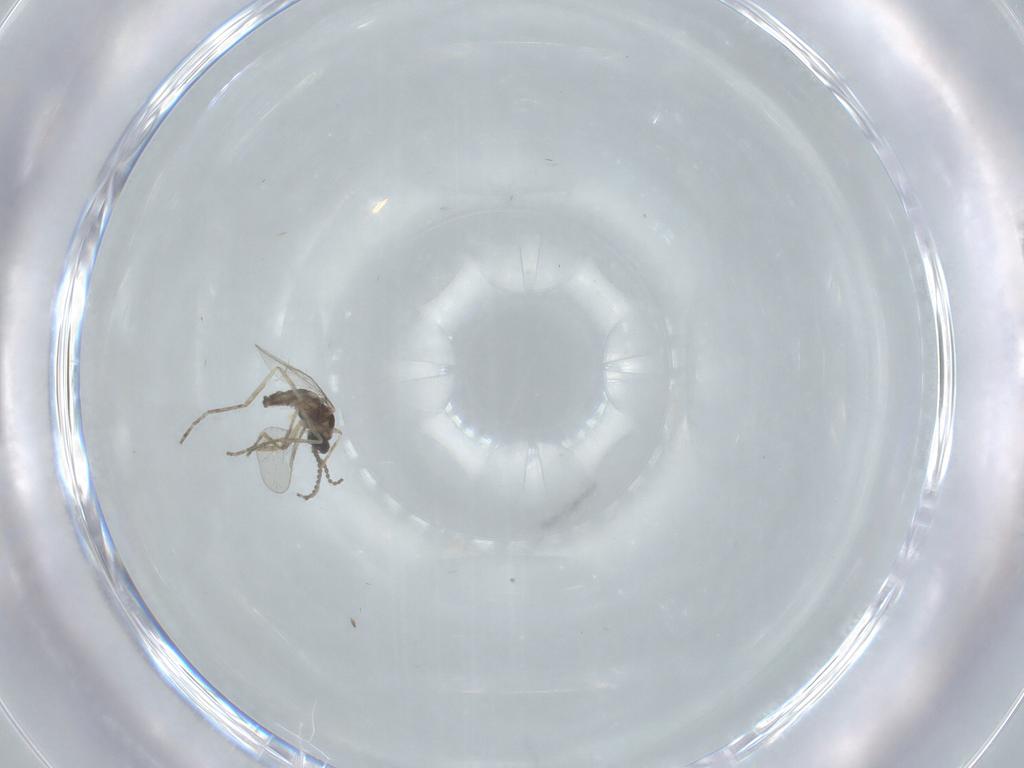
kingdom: Animalia
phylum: Arthropoda
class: Insecta
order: Diptera
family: Cecidomyiidae
